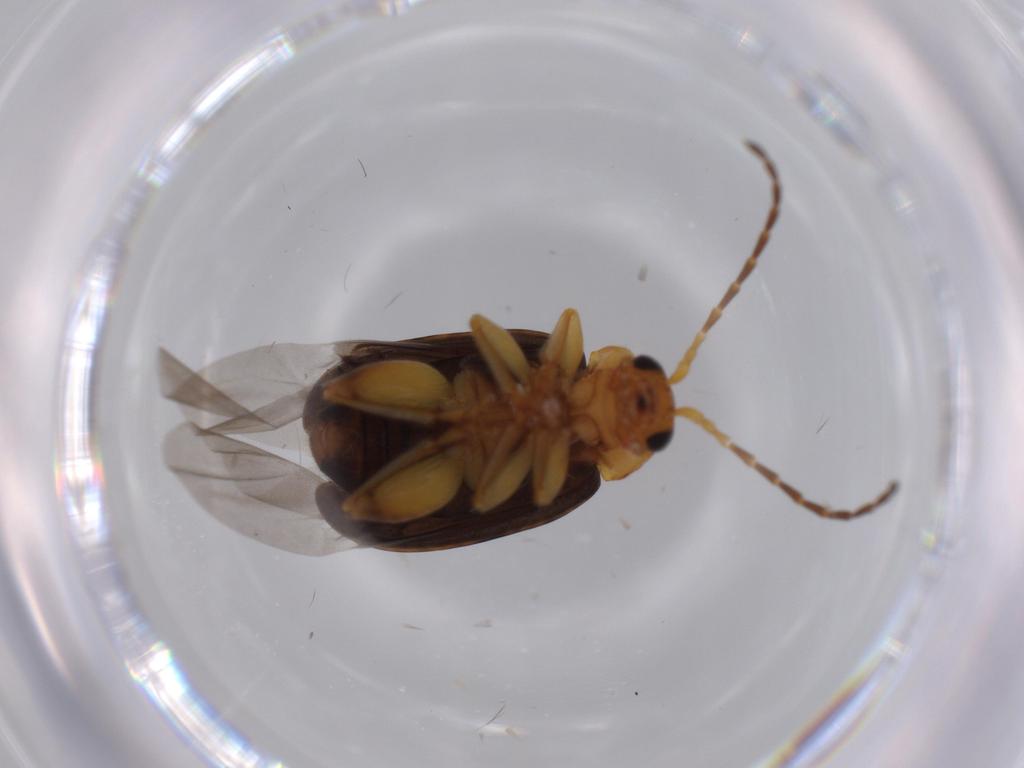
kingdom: Animalia
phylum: Arthropoda
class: Insecta
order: Coleoptera
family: Chrysomelidae
